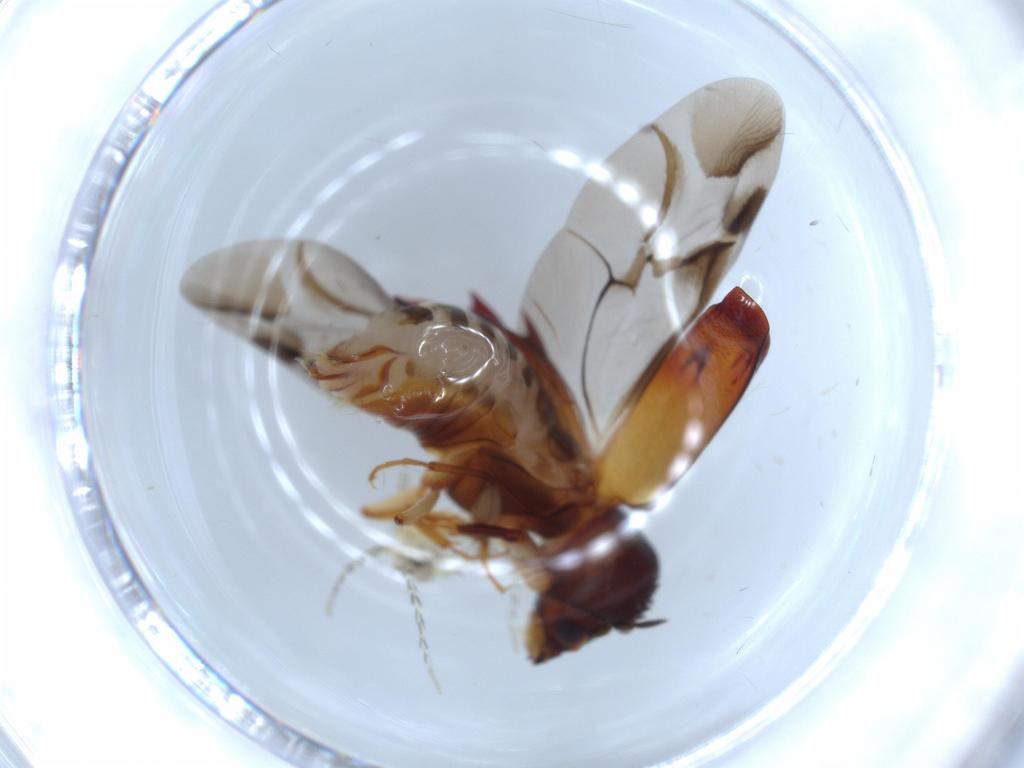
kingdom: Animalia
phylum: Arthropoda
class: Insecta
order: Coleoptera
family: Bostrichidae
